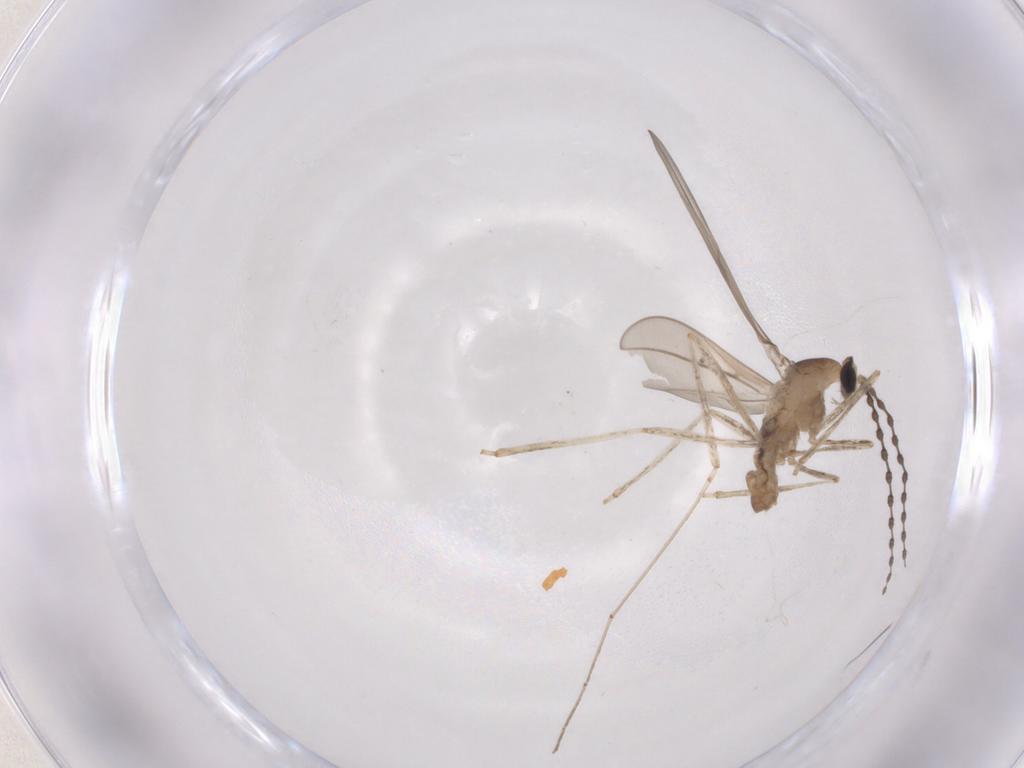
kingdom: Animalia
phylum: Arthropoda
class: Insecta
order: Diptera
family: Cecidomyiidae
